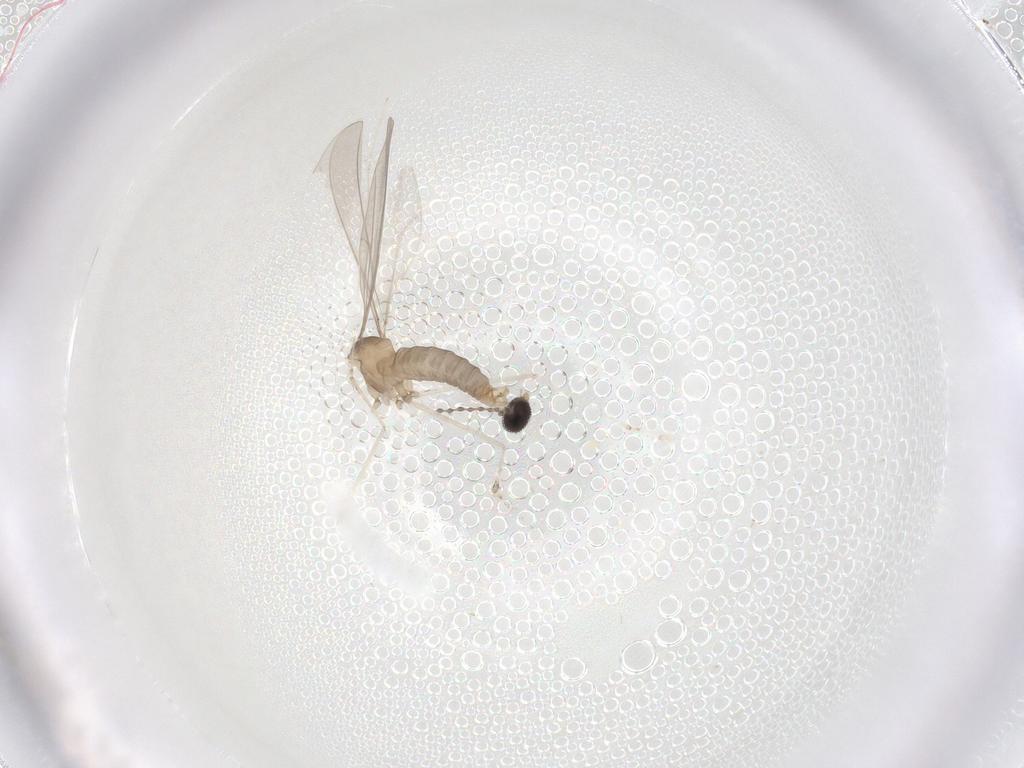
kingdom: Animalia
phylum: Arthropoda
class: Insecta
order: Diptera
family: Cecidomyiidae
